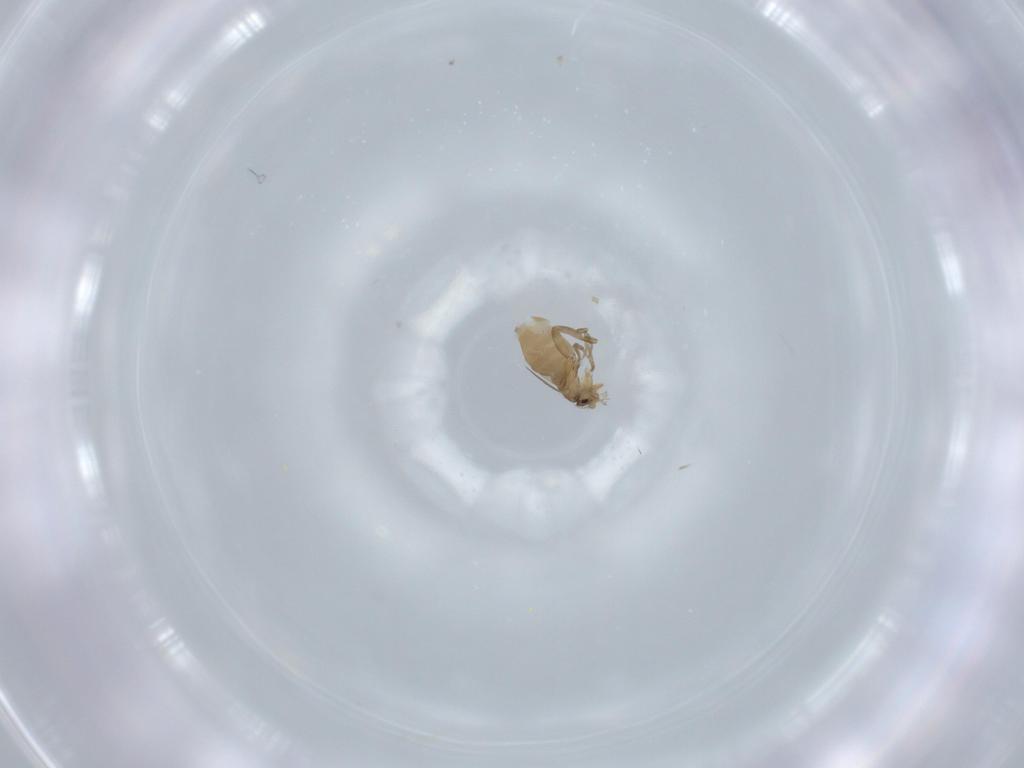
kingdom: Animalia
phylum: Arthropoda
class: Insecta
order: Diptera
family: Phoridae
